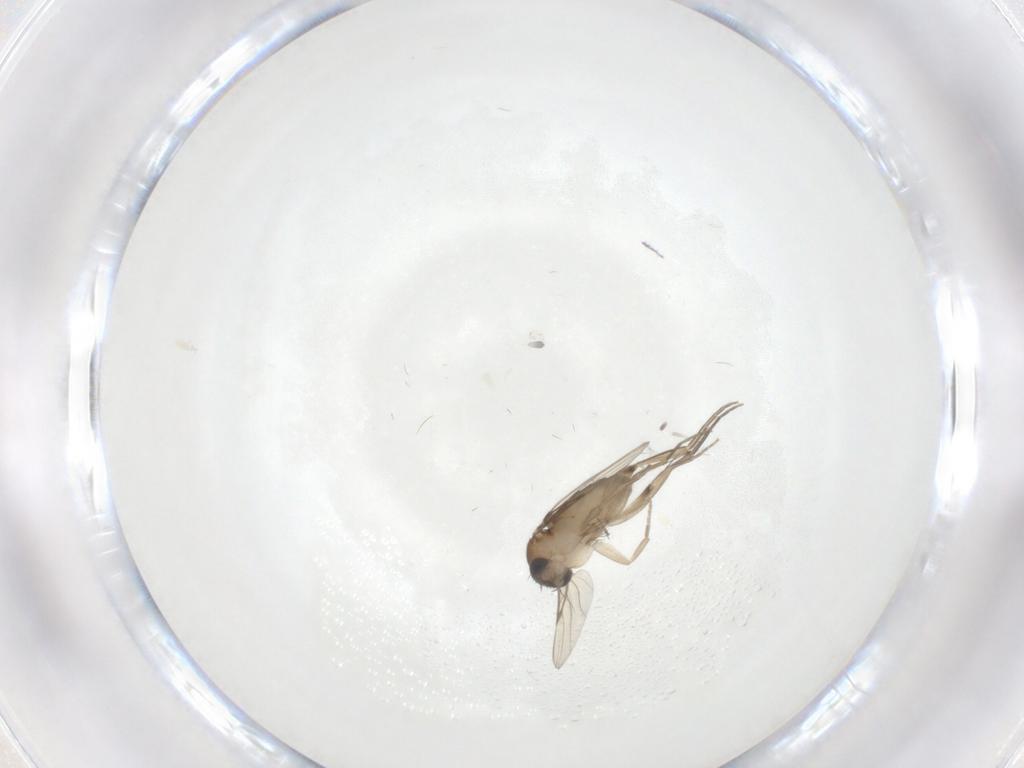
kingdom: Animalia
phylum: Arthropoda
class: Insecta
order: Diptera
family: Phoridae
